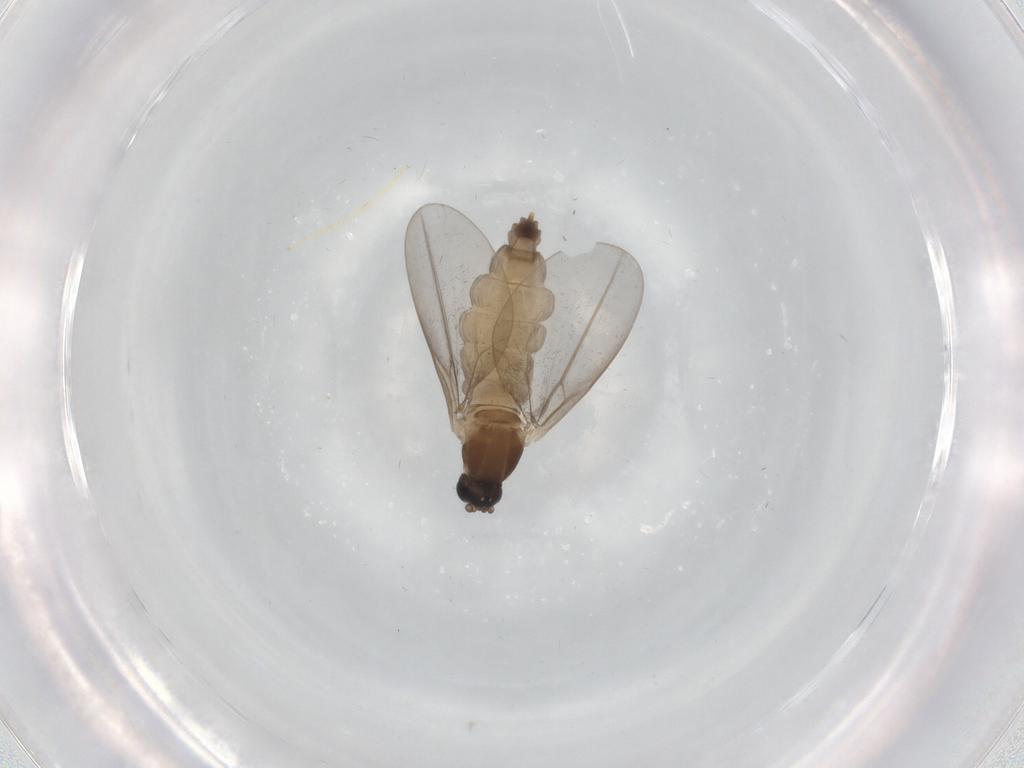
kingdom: Animalia
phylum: Arthropoda
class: Insecta
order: Diptera
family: Cecidomyiidae
